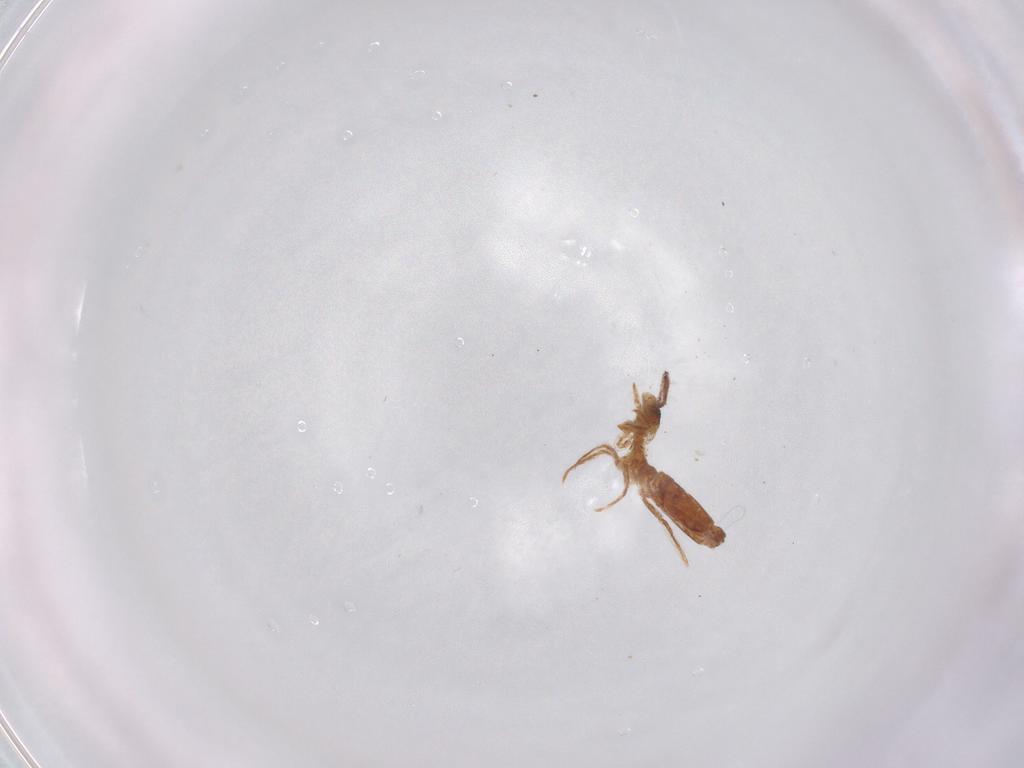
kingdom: Animalia
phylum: Arthropoda
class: Collembola
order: Entomobryomorpha
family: Entomobryidae
